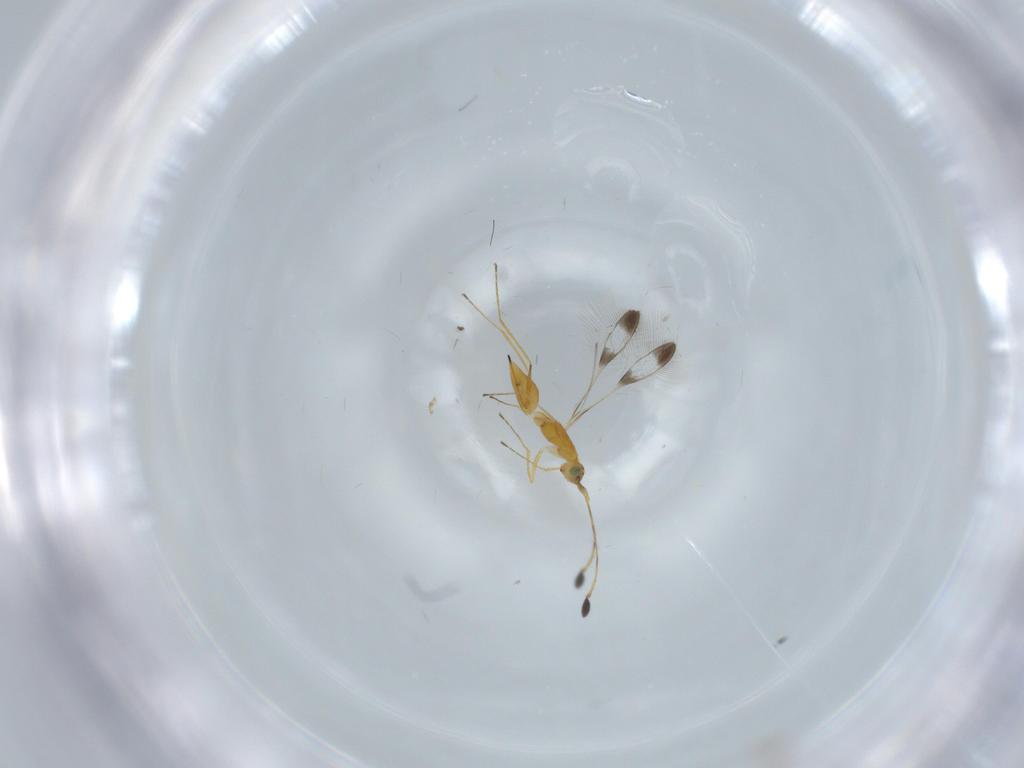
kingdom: Animalia
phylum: Arthropoda
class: Insecta
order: Hymenoptera
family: Mymaridae
